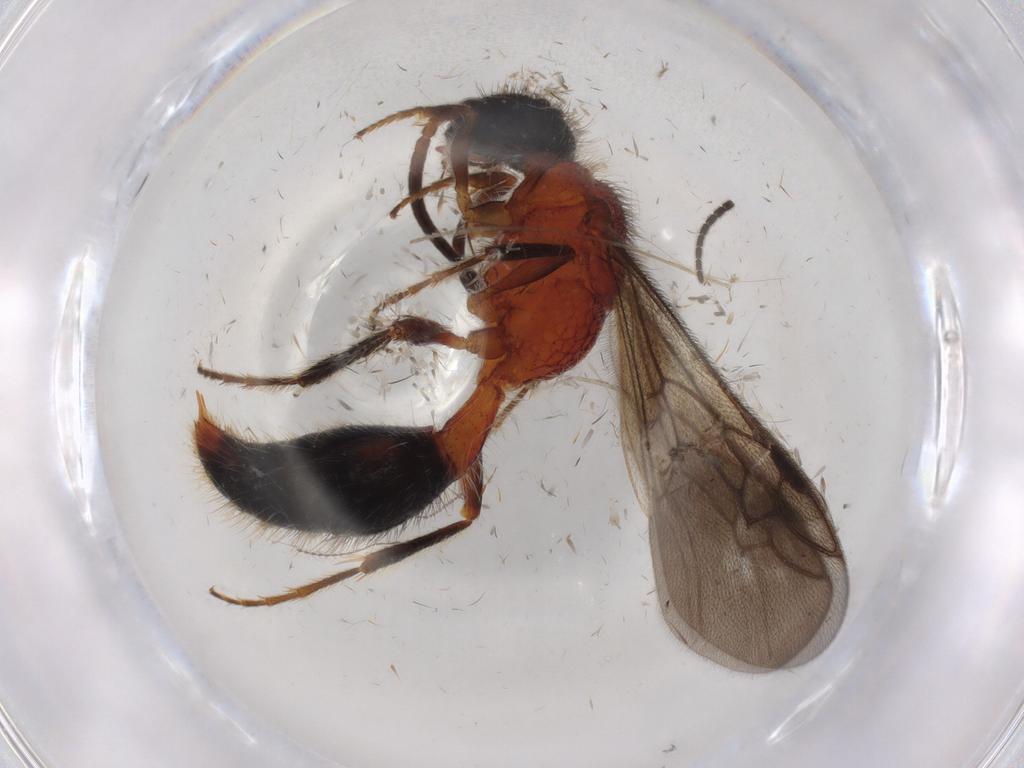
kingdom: Animalia
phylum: Arthropoda
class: Insecta
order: Hymenoptera
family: Mutillidae
